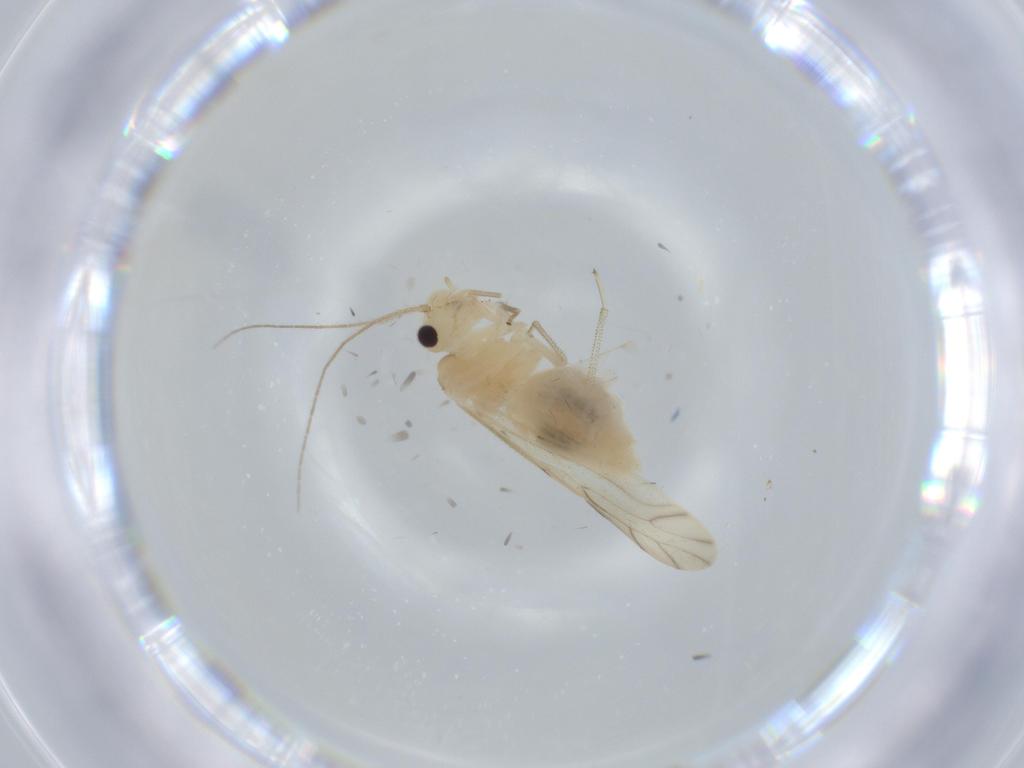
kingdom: Animalia
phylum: Arthropoda
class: Insecta
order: Psocodea
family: Caeciliusidae
